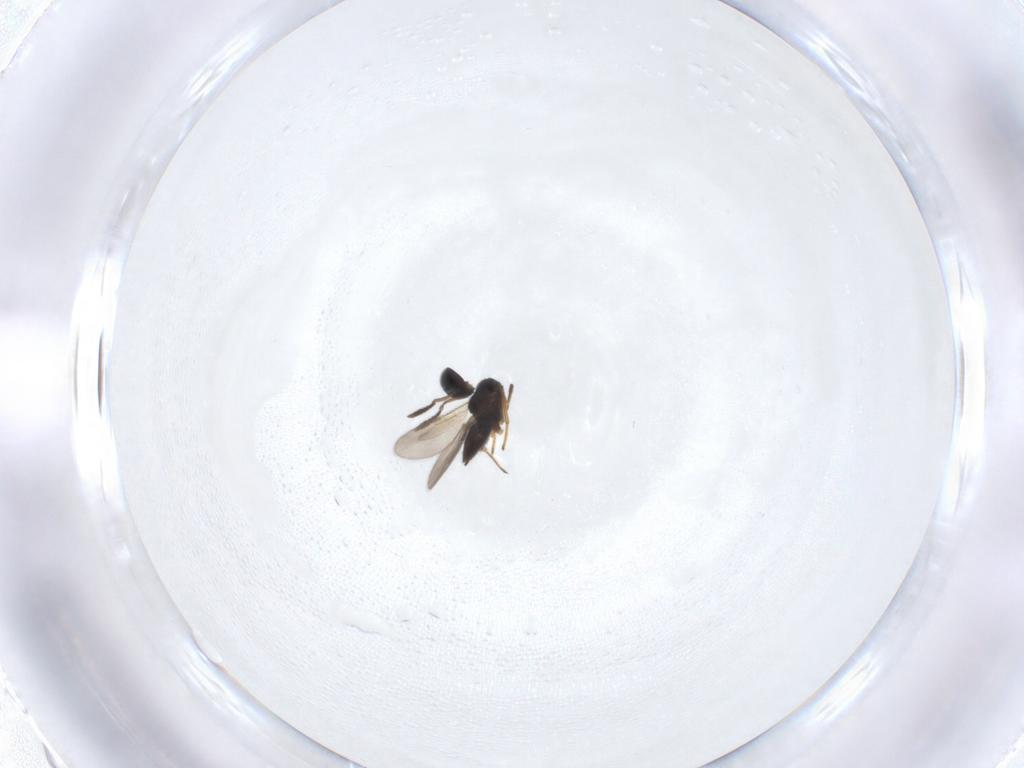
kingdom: Animalia
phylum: Arthropoda
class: Insecta
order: Hymenoptera
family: Encyrtidae
